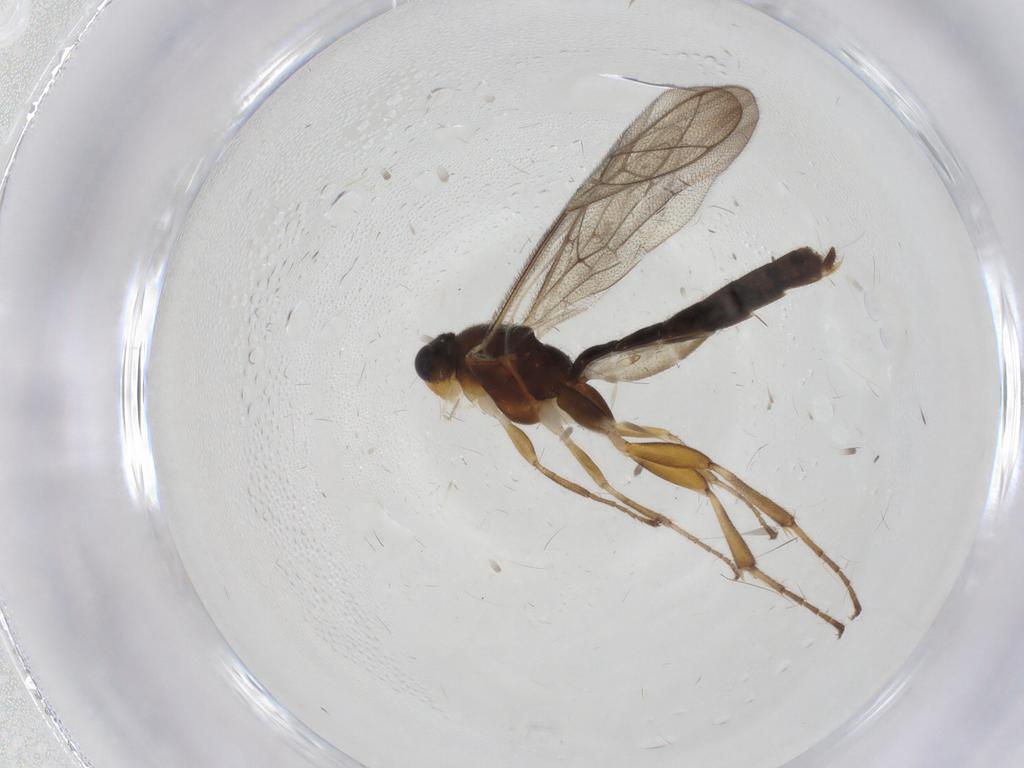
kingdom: Animalia
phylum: Arthropoda
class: Insecta
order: Hymenoptera
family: Ichneumonidae
